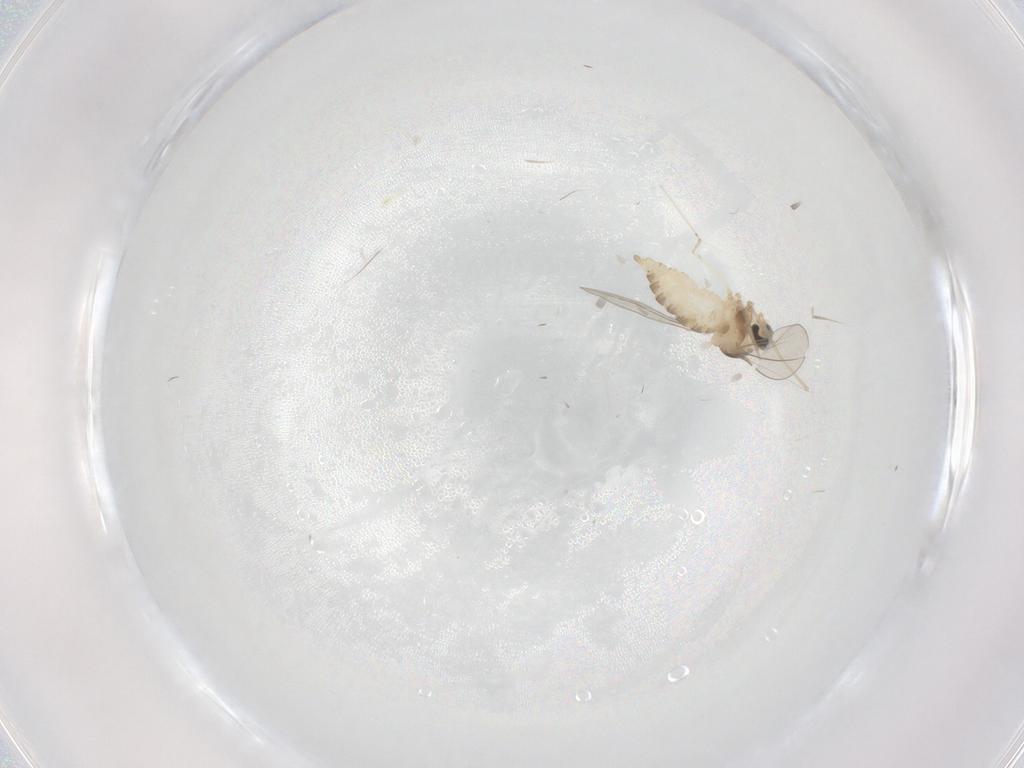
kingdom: Animalia
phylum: Arthropoda
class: Insecta
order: Diptera
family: Cecidomyiidae
